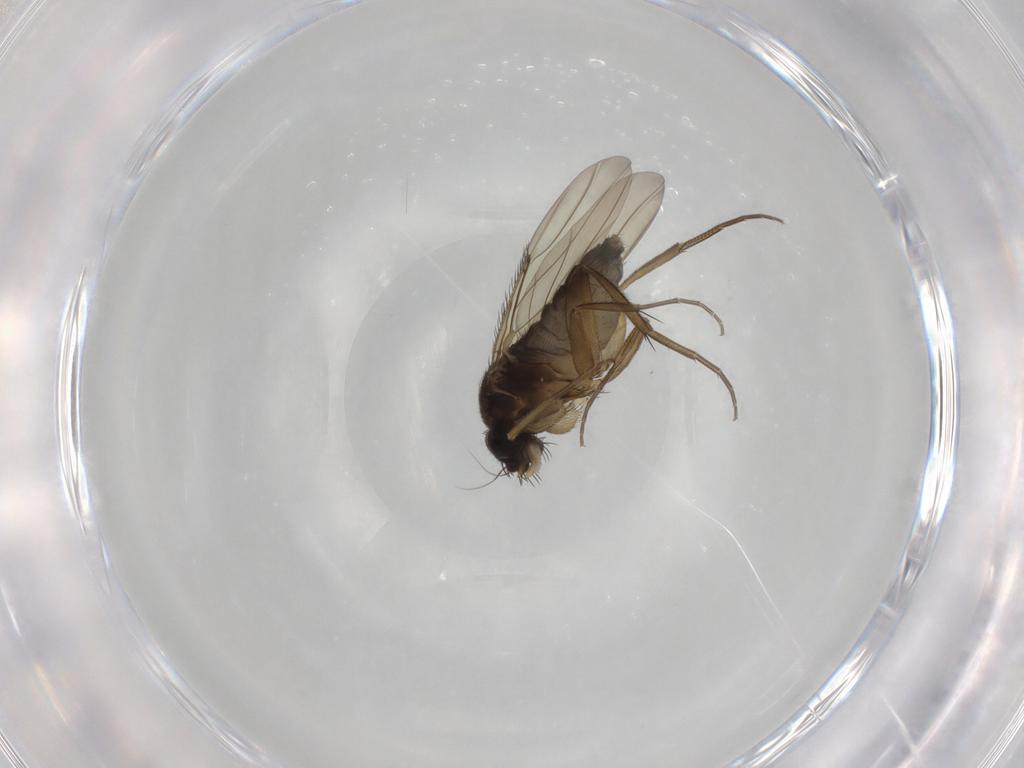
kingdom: Animalia
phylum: Arthropoda
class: Insecta
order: Diptera
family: Phoridae
